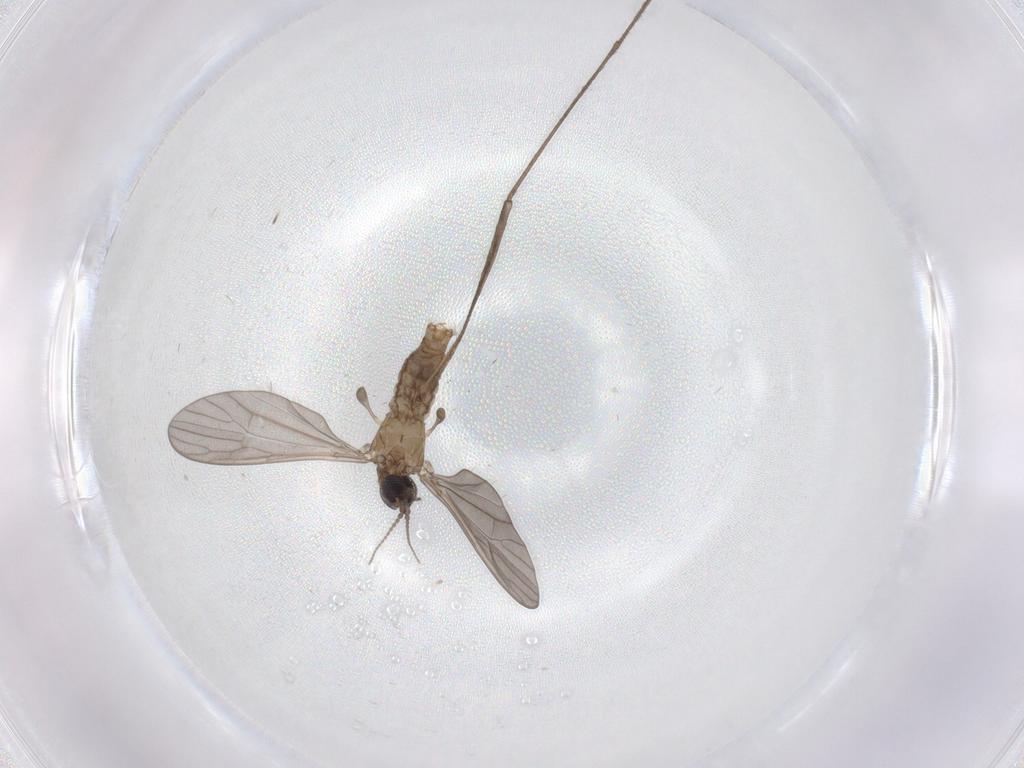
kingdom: Animalia
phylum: Arthropoda
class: Insecta
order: Diptera
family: Limoniidae
